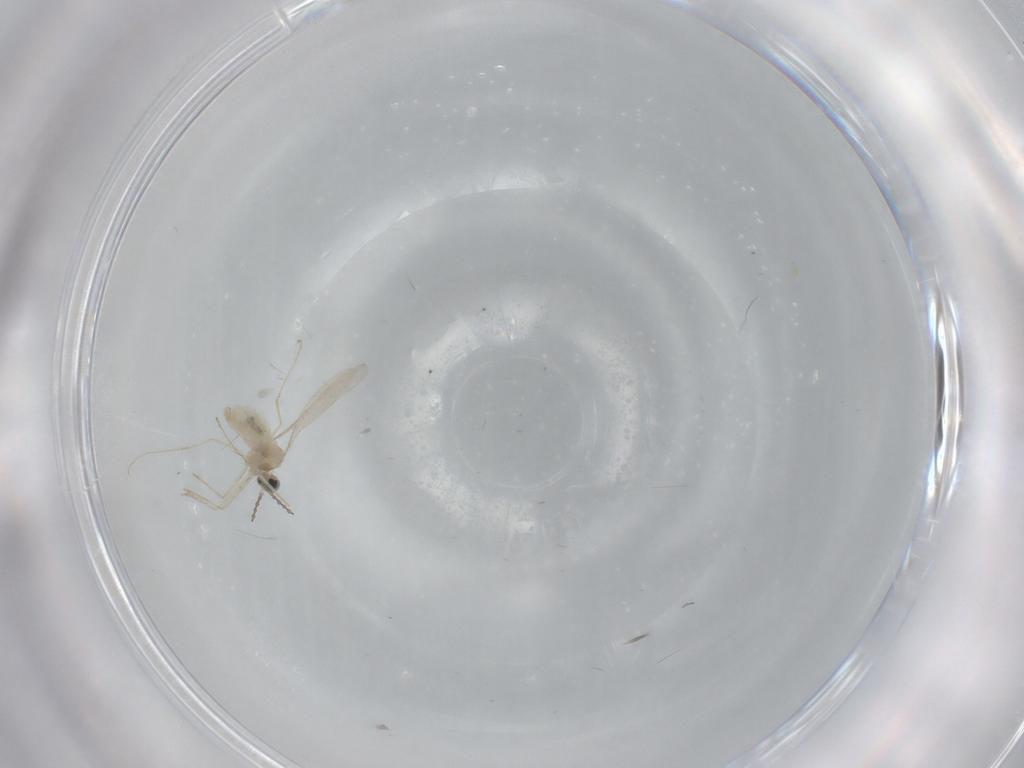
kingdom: Animalia
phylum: Arthropoda
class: Insecta
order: Diptera
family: Sciaridae
